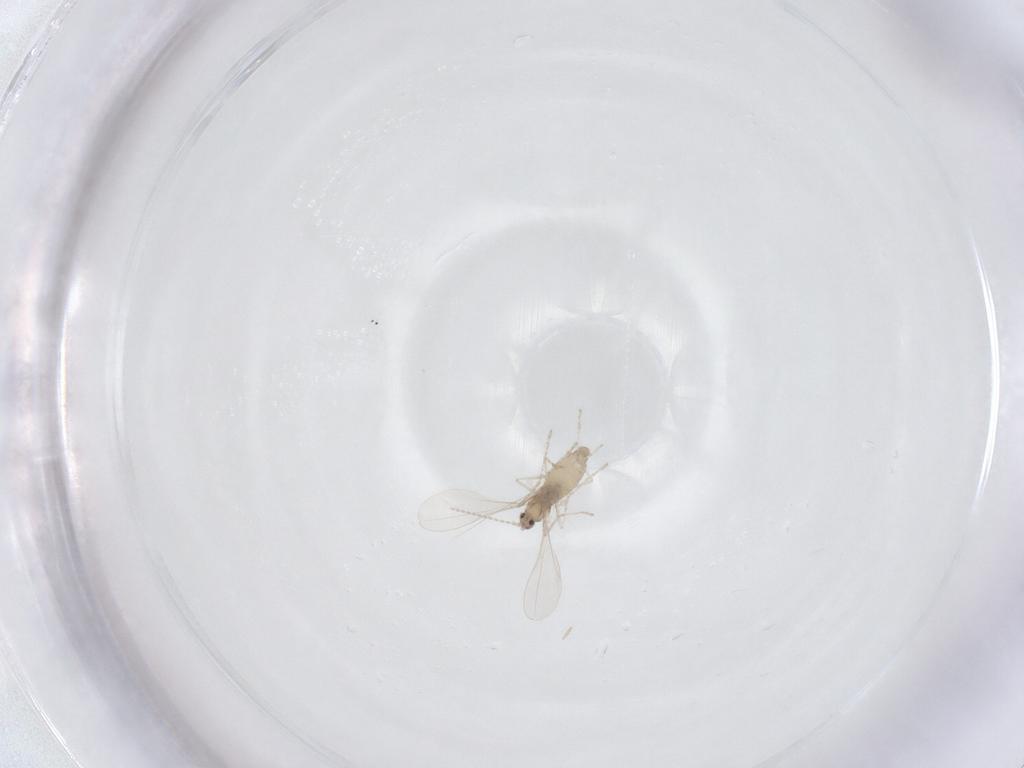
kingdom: Animalia
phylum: Arthropoda
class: Insecta
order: Diptera
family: Cecidomyiidae
